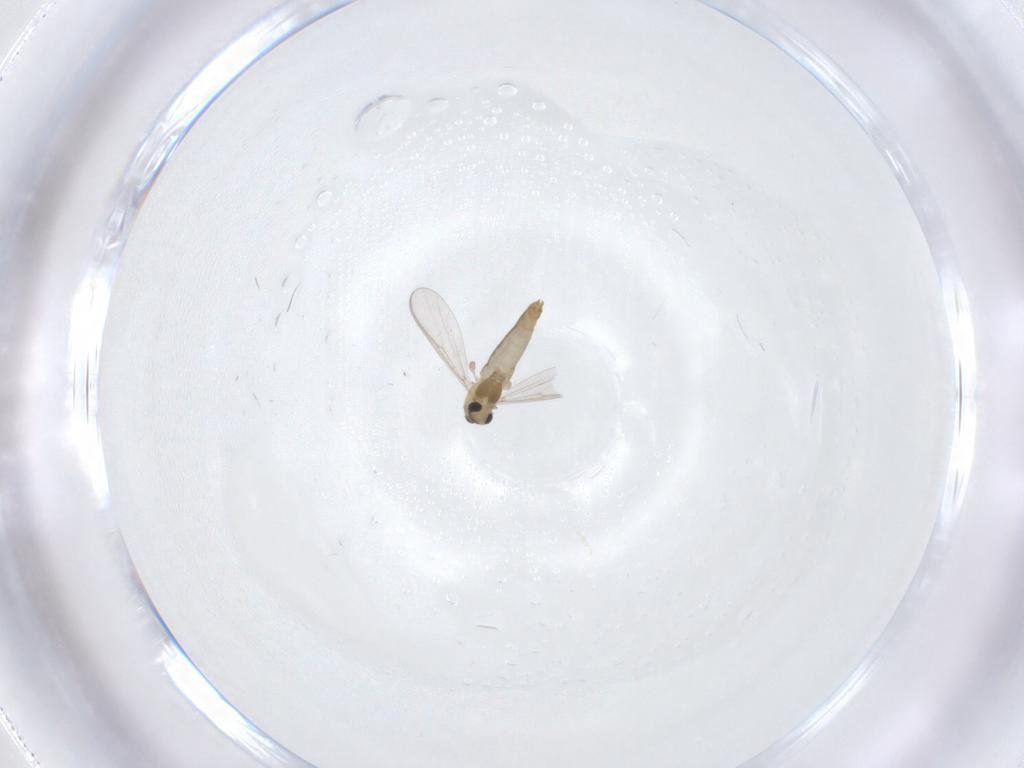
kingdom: Animalia
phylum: Arthropoda
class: Insecta
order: Diptera
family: Chironomidae
